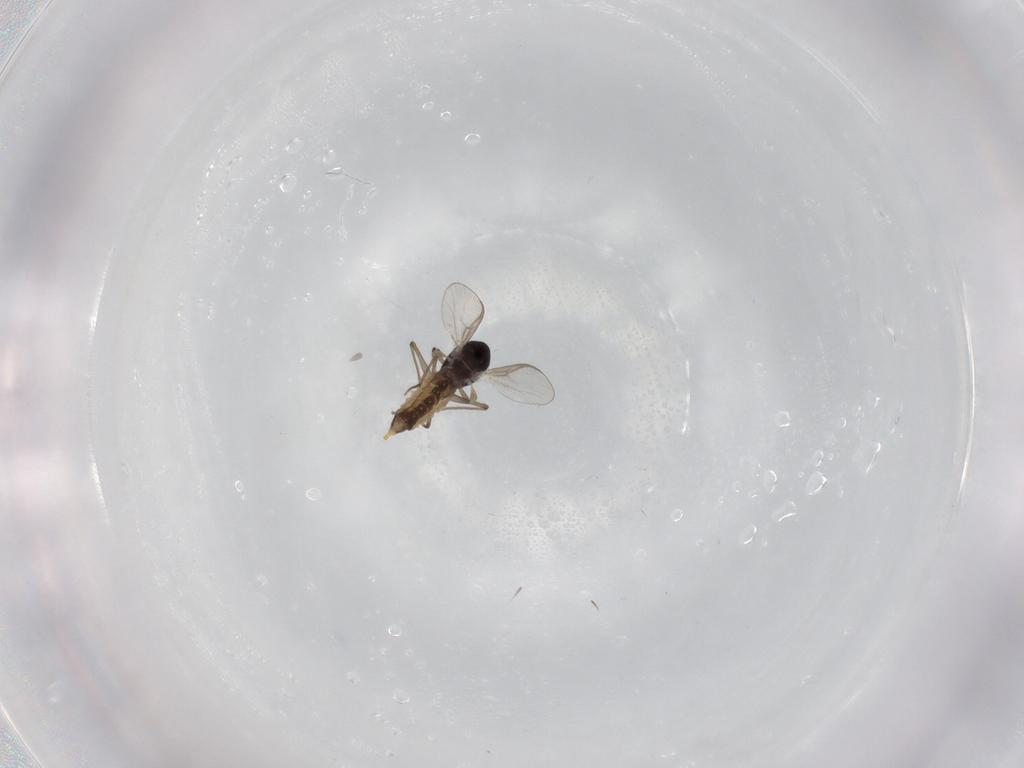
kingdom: Animalia
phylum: Arthropoda
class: Insecta
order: Diptera
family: Chironomidae
